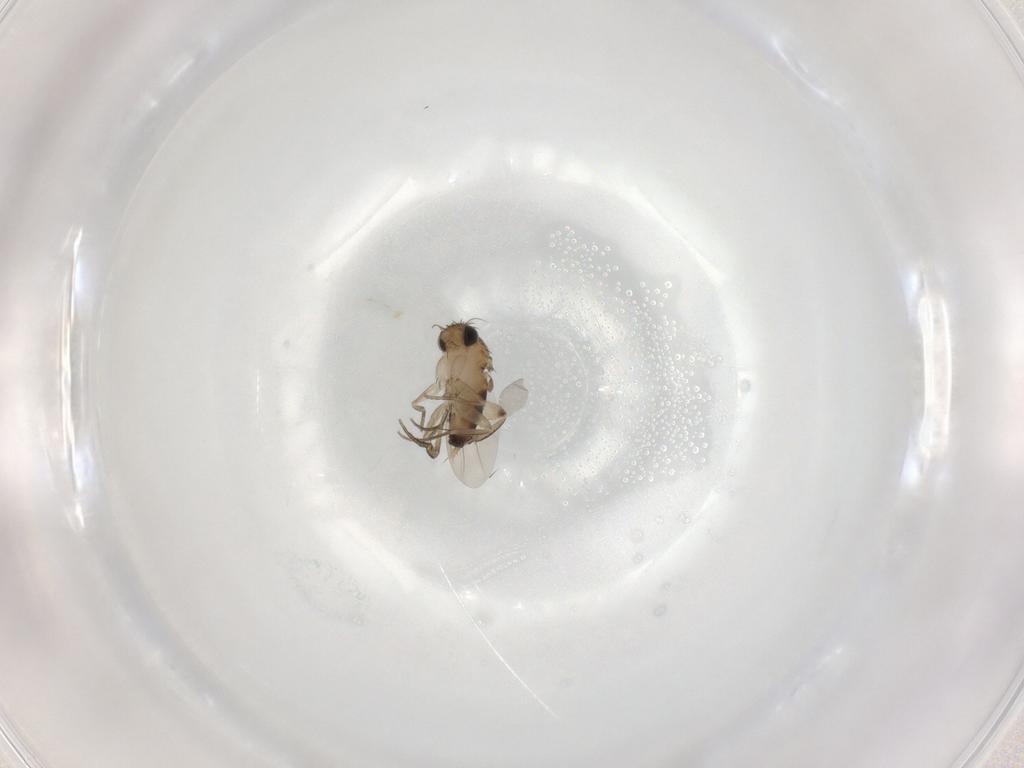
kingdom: Animalia
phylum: Arthropoda
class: Insecta
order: Diptera
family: Phoridae
